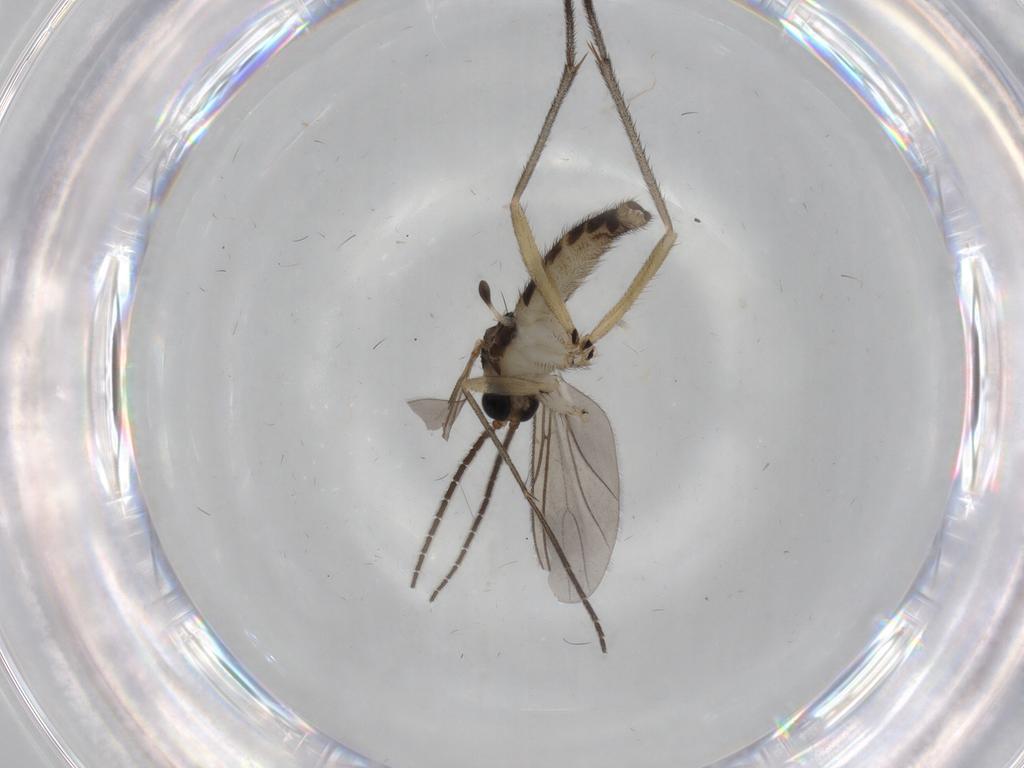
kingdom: Animalia
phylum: Arthropoda
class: Insecta
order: Diptera
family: Sciaridae
